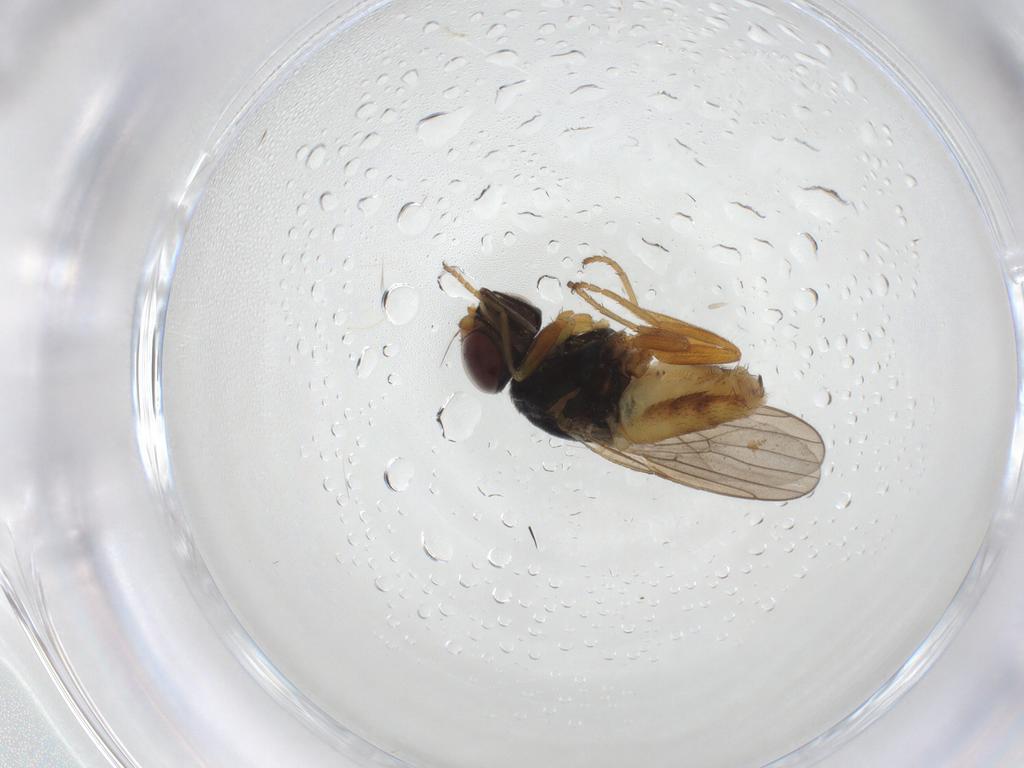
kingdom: Animalia
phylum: Arthropoda
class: Insecta
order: Diptera
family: Chloropidae
